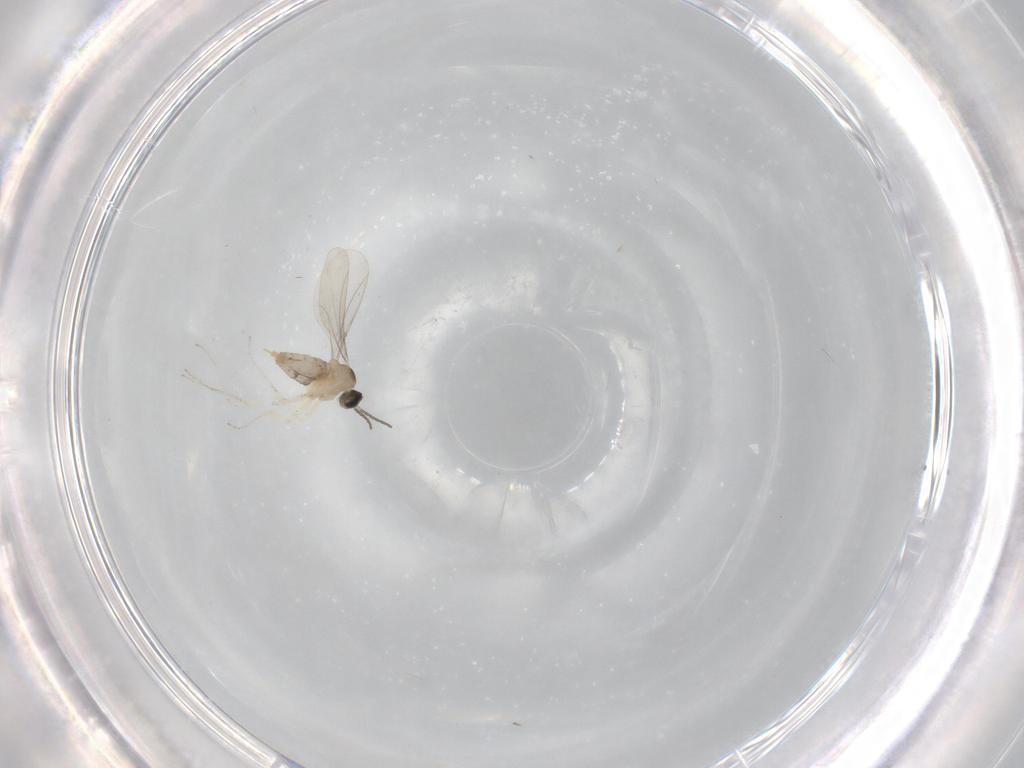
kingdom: Animalia
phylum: Arthropoda
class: Insecta
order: Diptera
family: Cecidomyiidae
